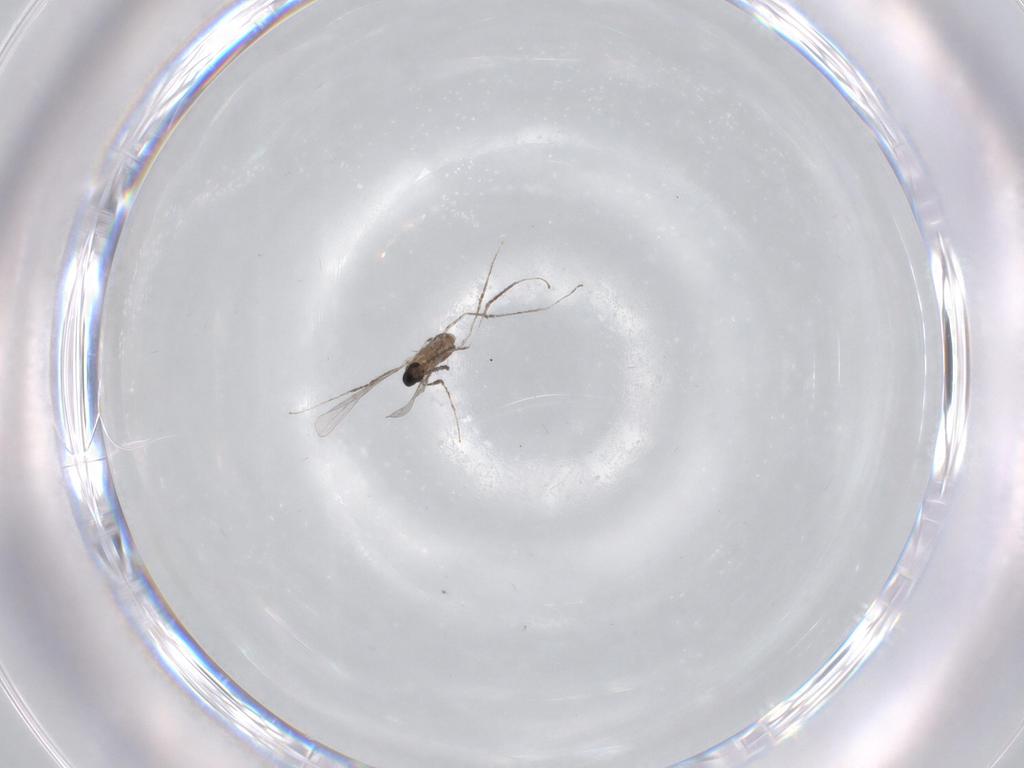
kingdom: Animalia
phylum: Arthropoda
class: Insecta
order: Diptera
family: Cecidomyiidae
